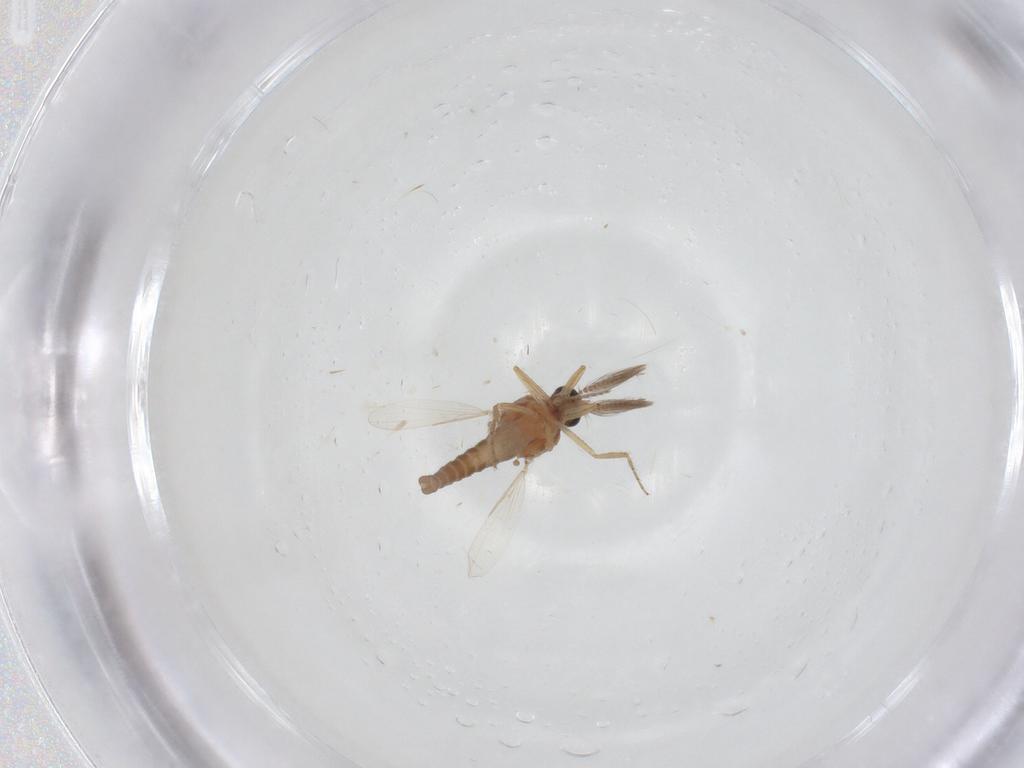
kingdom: Animalia
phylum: Arthropoda
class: Insecta
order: Diptera
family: Ceratopogonidae
